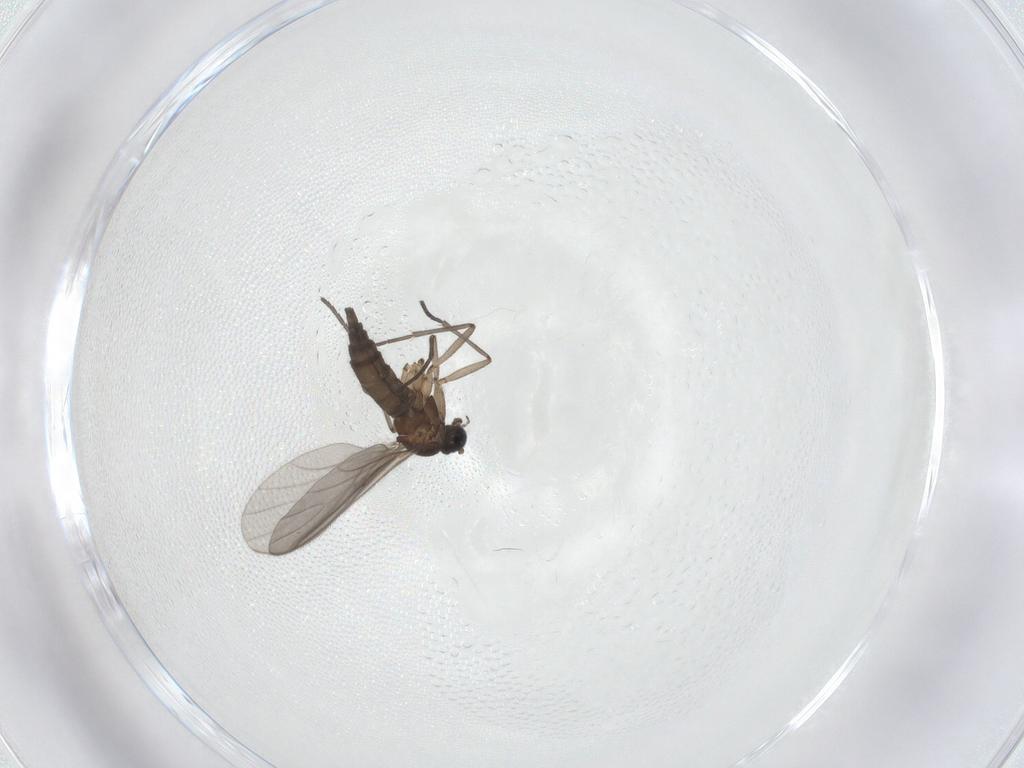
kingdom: Animalia
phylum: Arthropoda
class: Insecta
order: Diptera
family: Sciaridae
